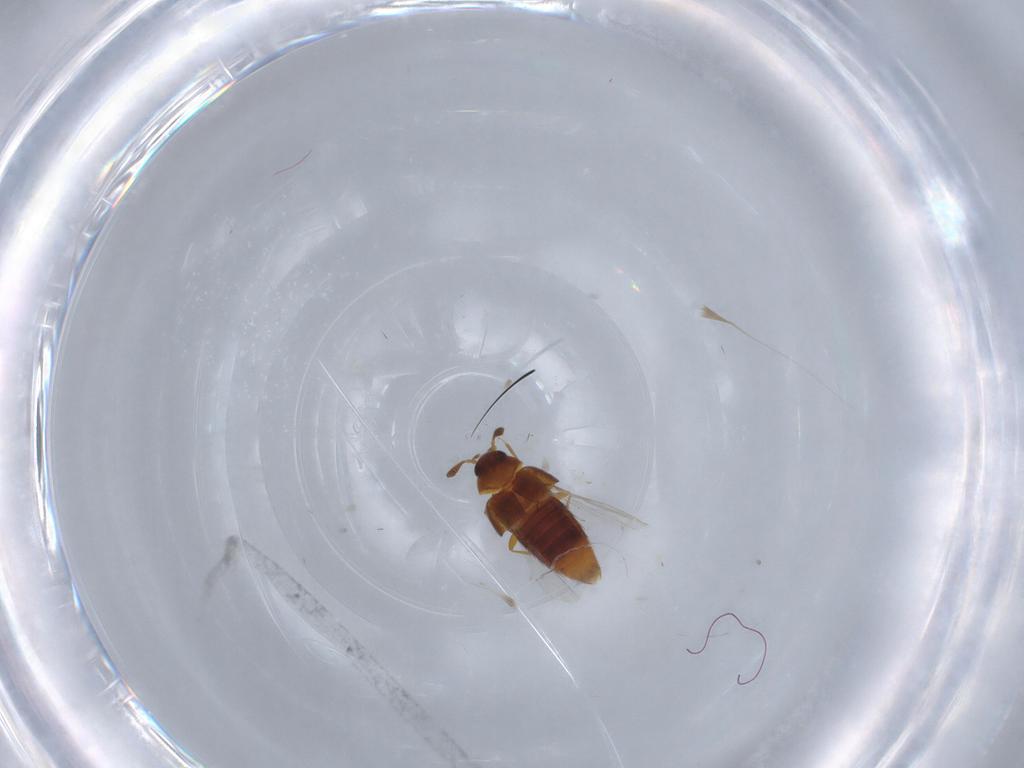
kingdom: Animalia
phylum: Arthropoda
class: Insecta
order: Coleoptera
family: Staphylinidae
